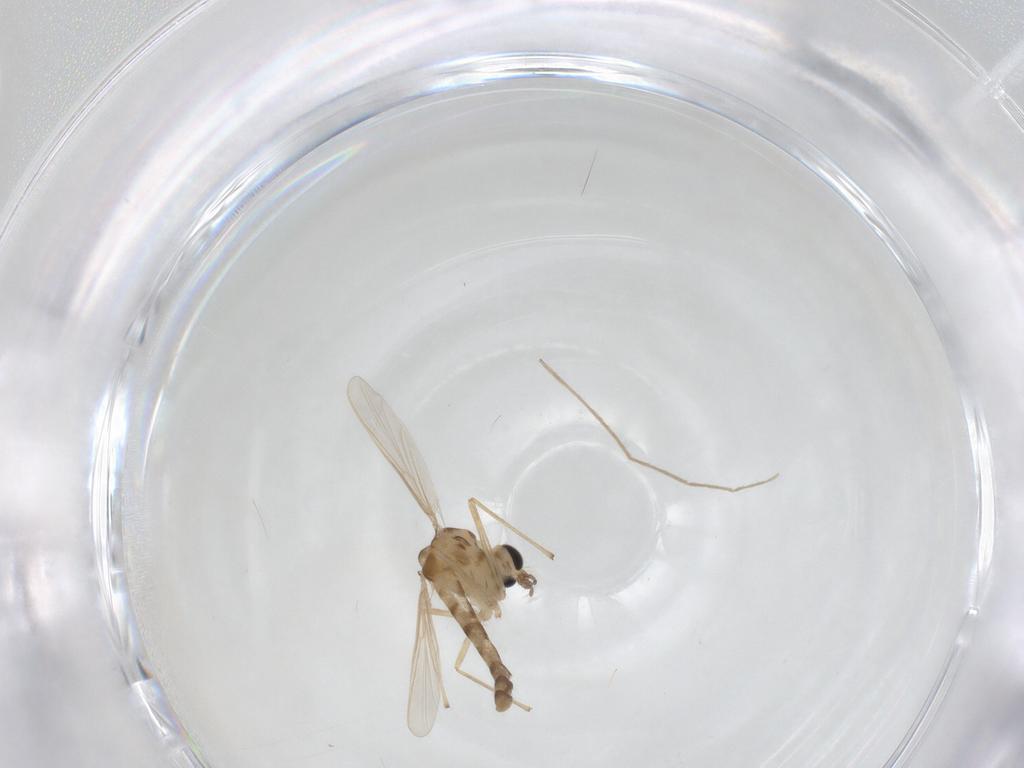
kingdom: Animalia
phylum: Arthropoda
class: Insecta
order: Diptera
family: Chironomidae
